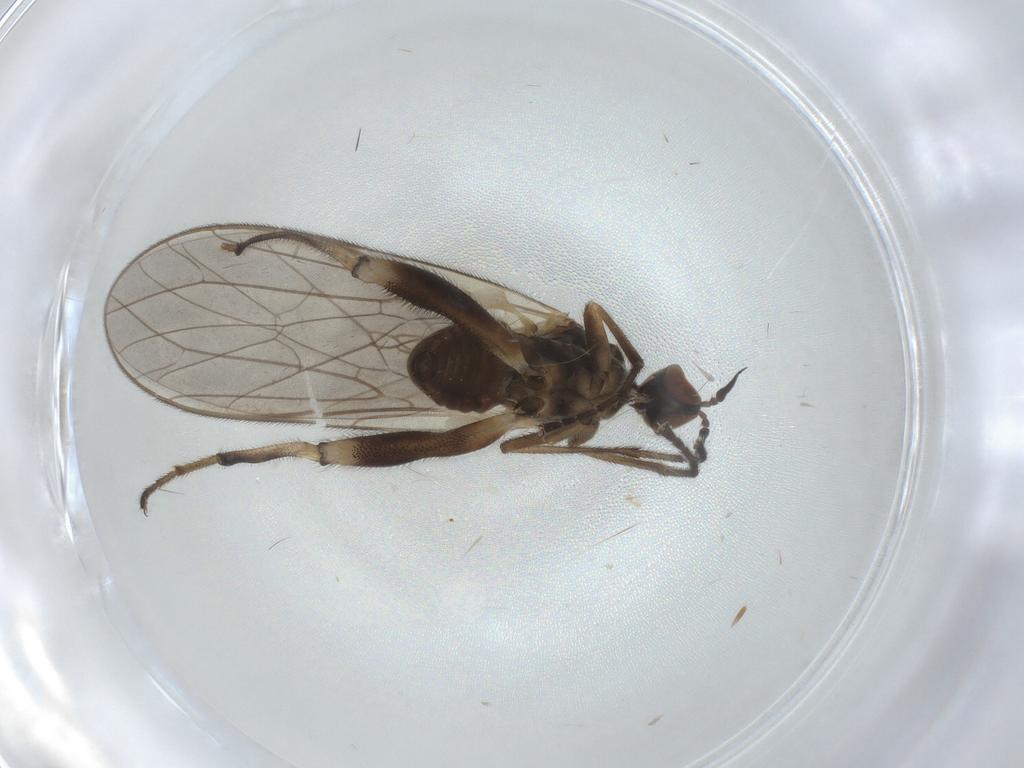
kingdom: Animalia
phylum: Arthropoda
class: Insecta
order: Diptera
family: Empididae
